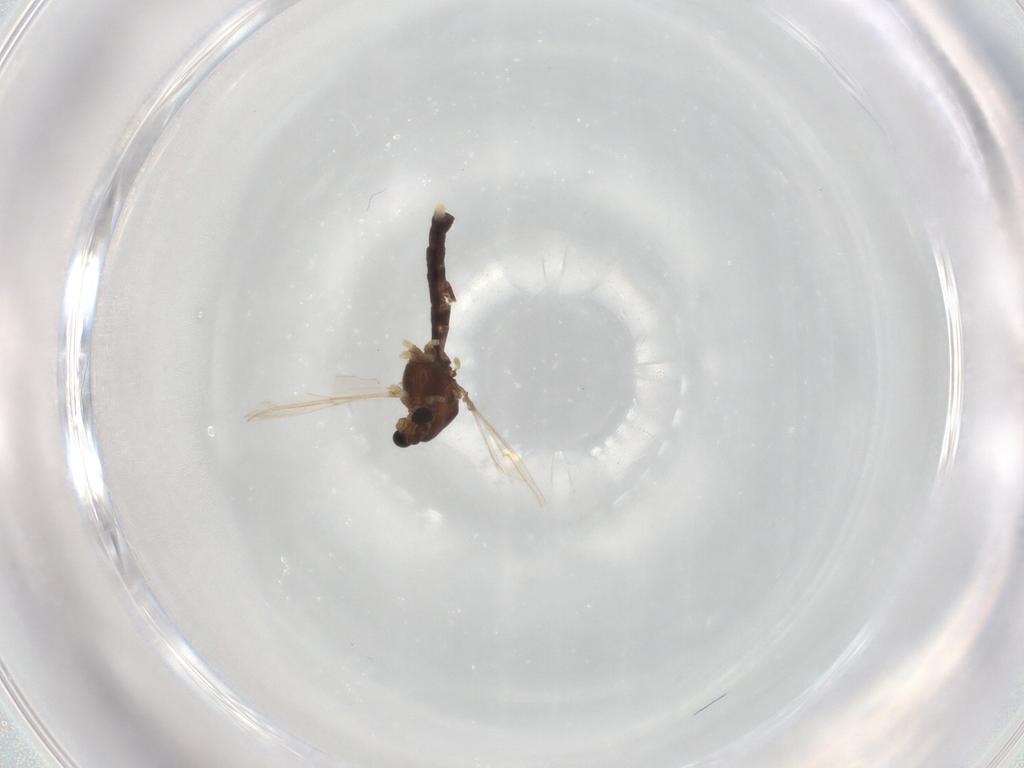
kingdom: Animalia
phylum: Arthropoda
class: Insecta
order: Diptera
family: Chironomidae
